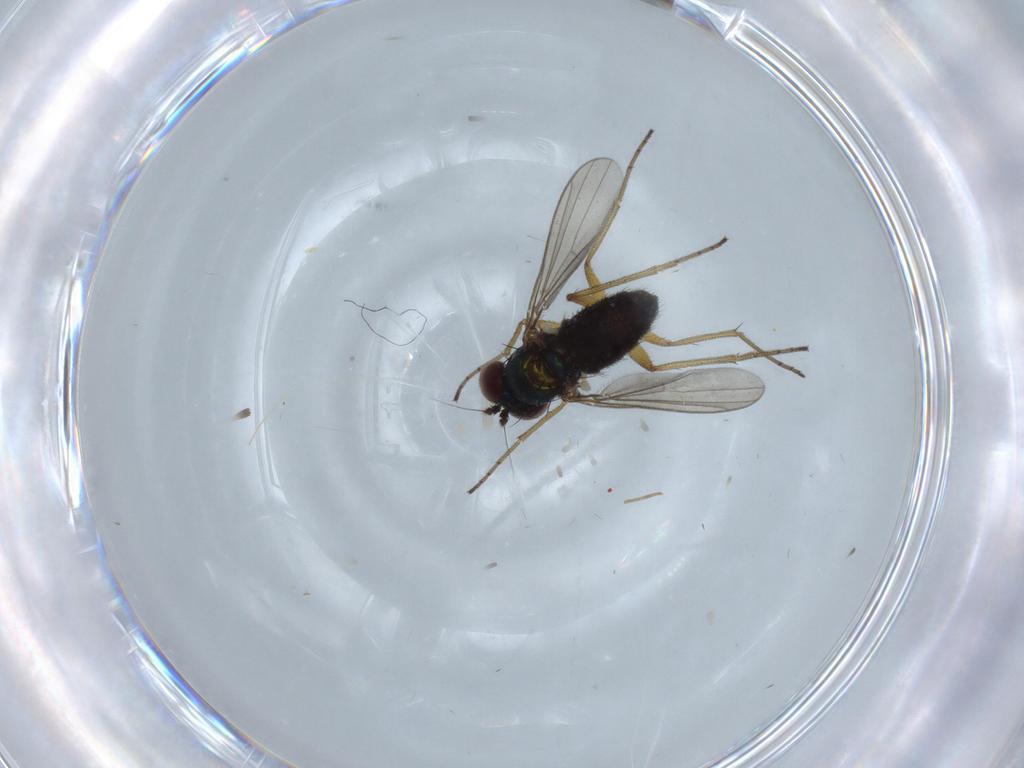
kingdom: Animalia
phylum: Arthropoda
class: Insecta
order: Diptera
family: Dolichopodidae
